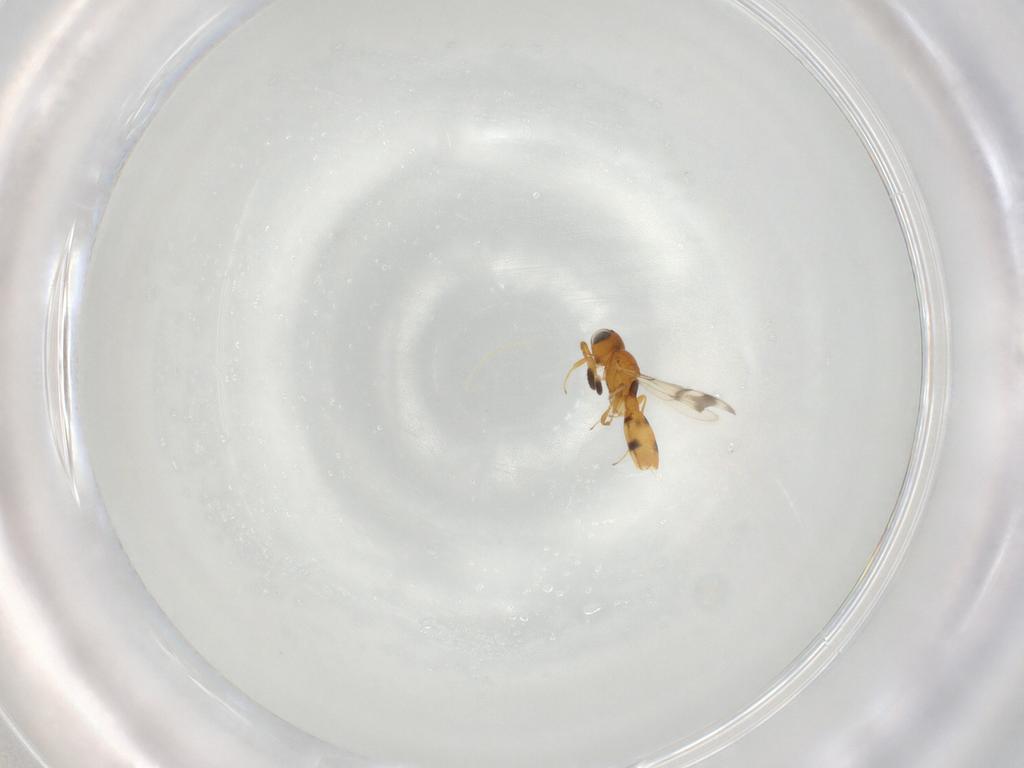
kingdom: Animalia
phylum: Arthropoda
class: Insecta
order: Hymenoptera
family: Scelionidae
